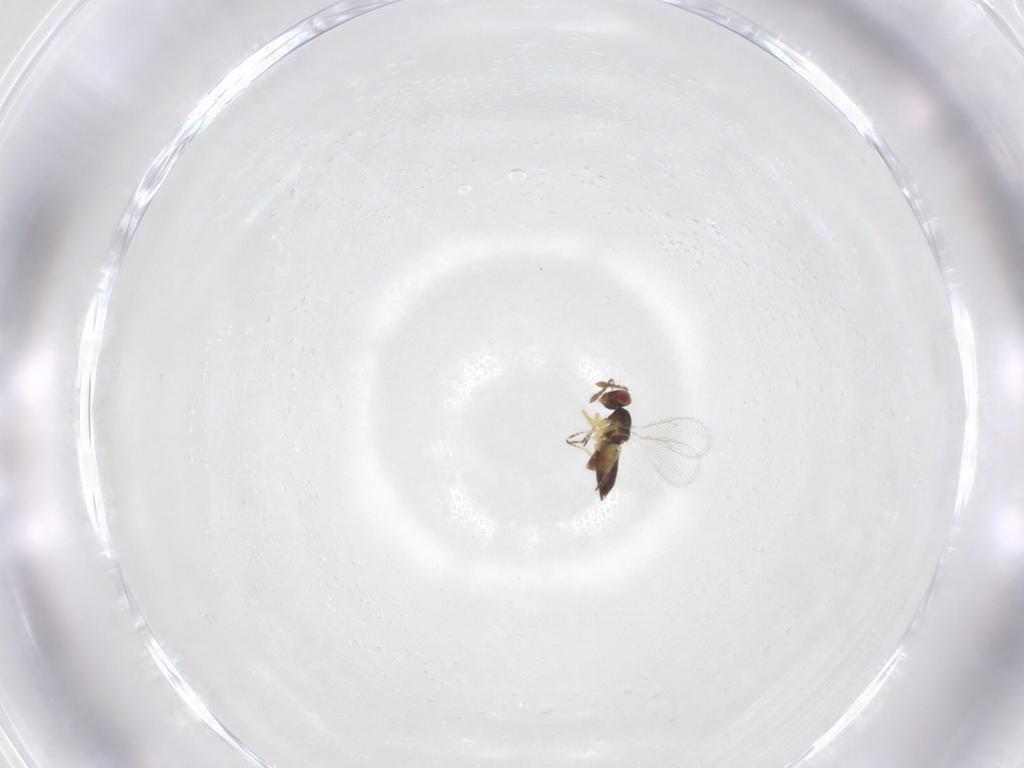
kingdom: Animalia
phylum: Arthropoda
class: Insecta
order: Hymenoptera
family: Eulophidae
